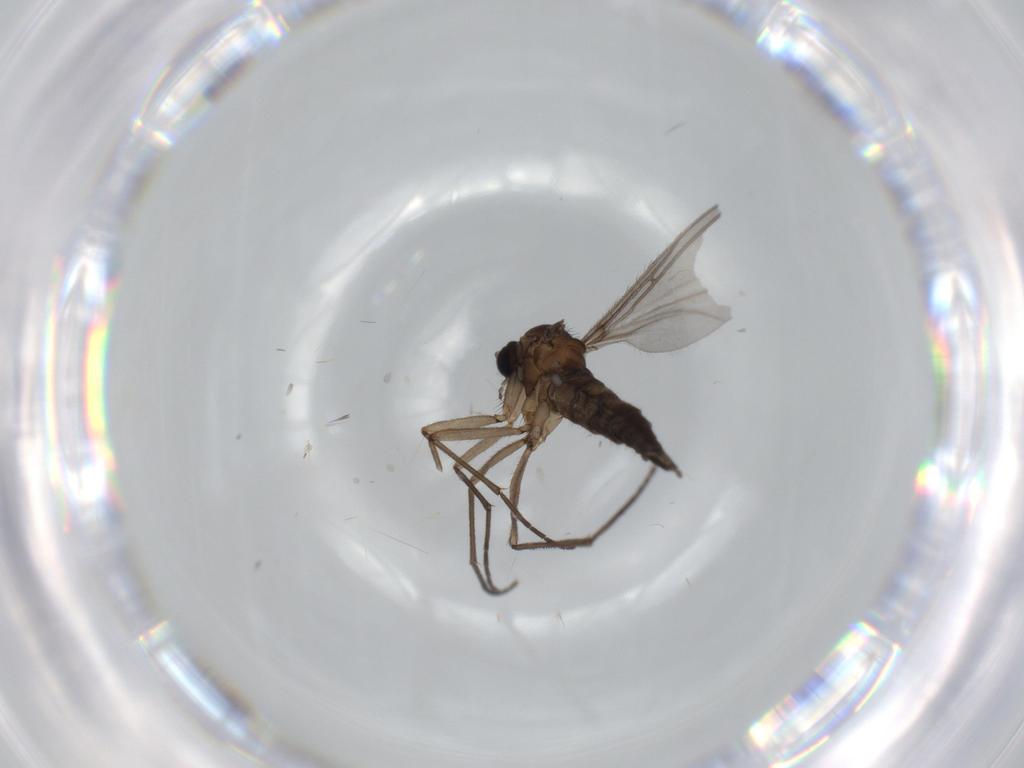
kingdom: Animalia
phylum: Arthropoda
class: Insecta
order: Diptera
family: Sciaridae
